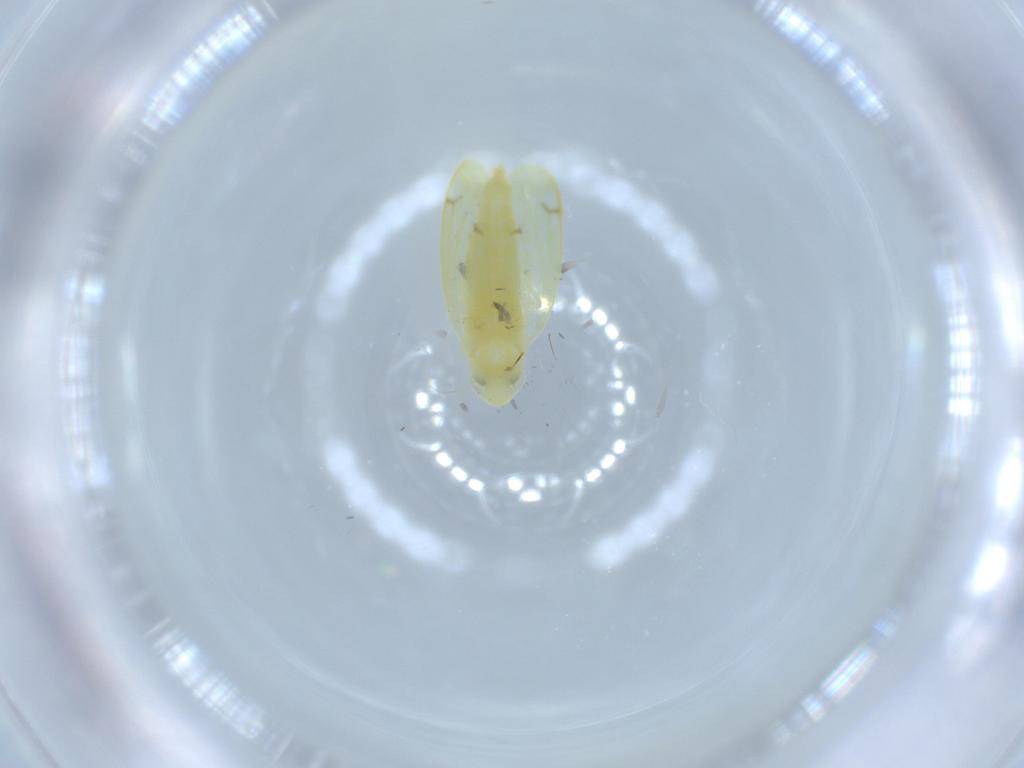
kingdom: Animalia
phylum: Arthropoda
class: Insecta
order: Hemiptera
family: Cicadellidae
